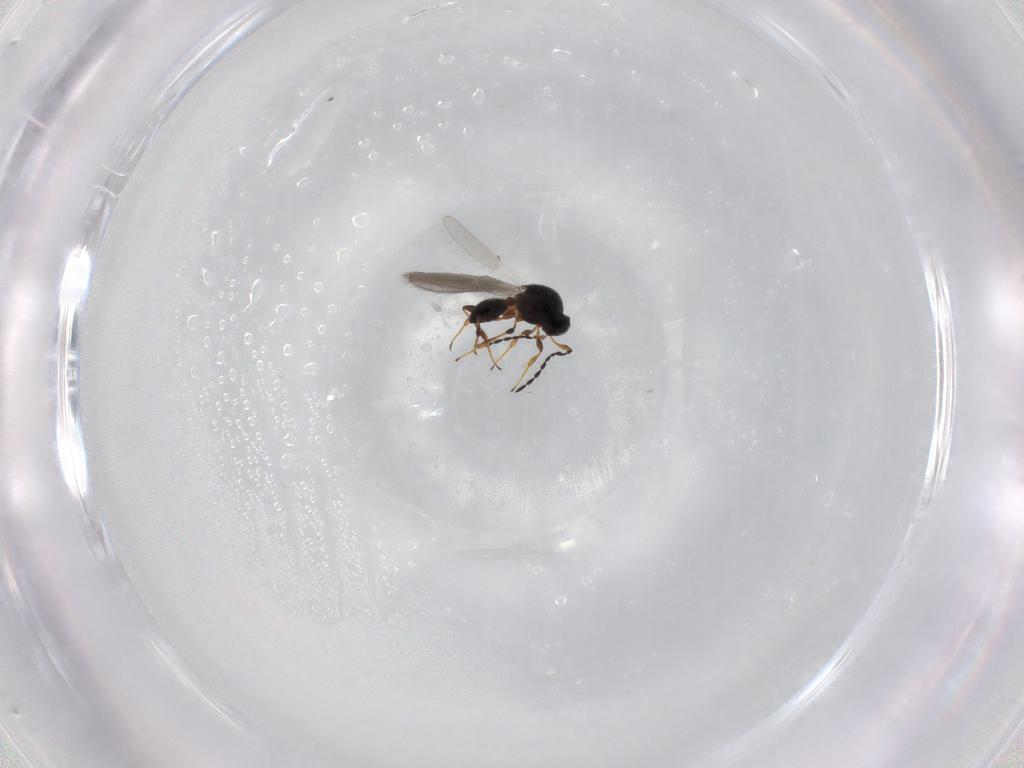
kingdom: Animalia
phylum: Arthropoda
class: Insecta
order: Hymenoptera
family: Platygastridae
